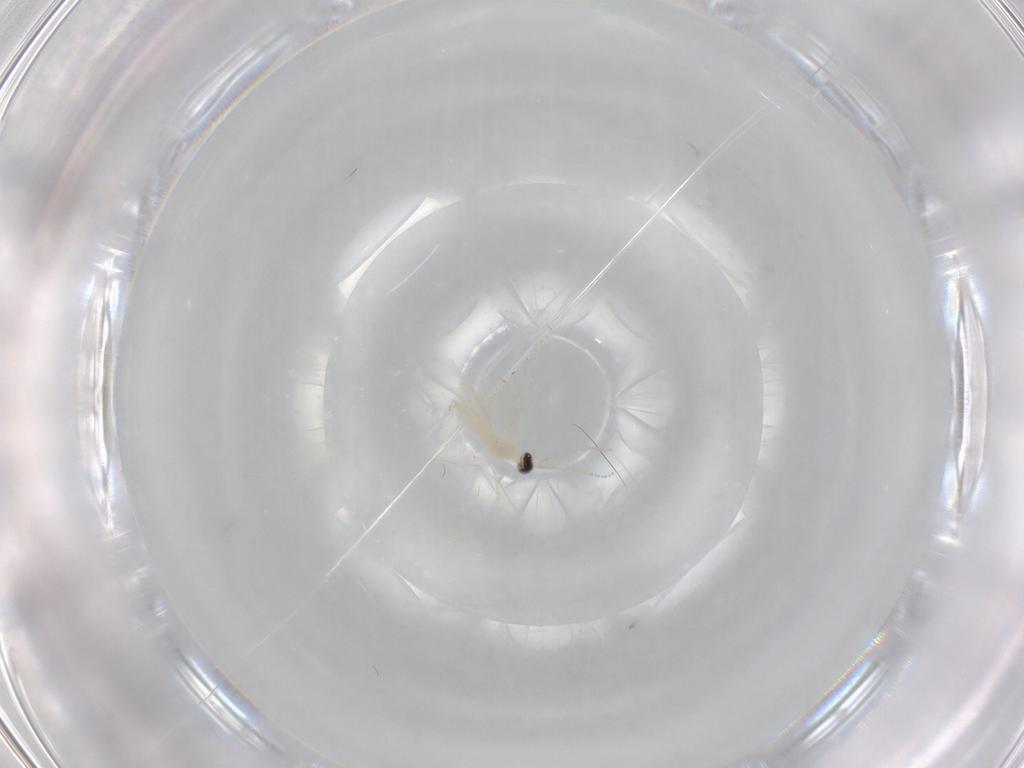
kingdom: Animalia
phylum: Arthropoda
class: Insecta
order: Diptera
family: Cecidomyiidae
